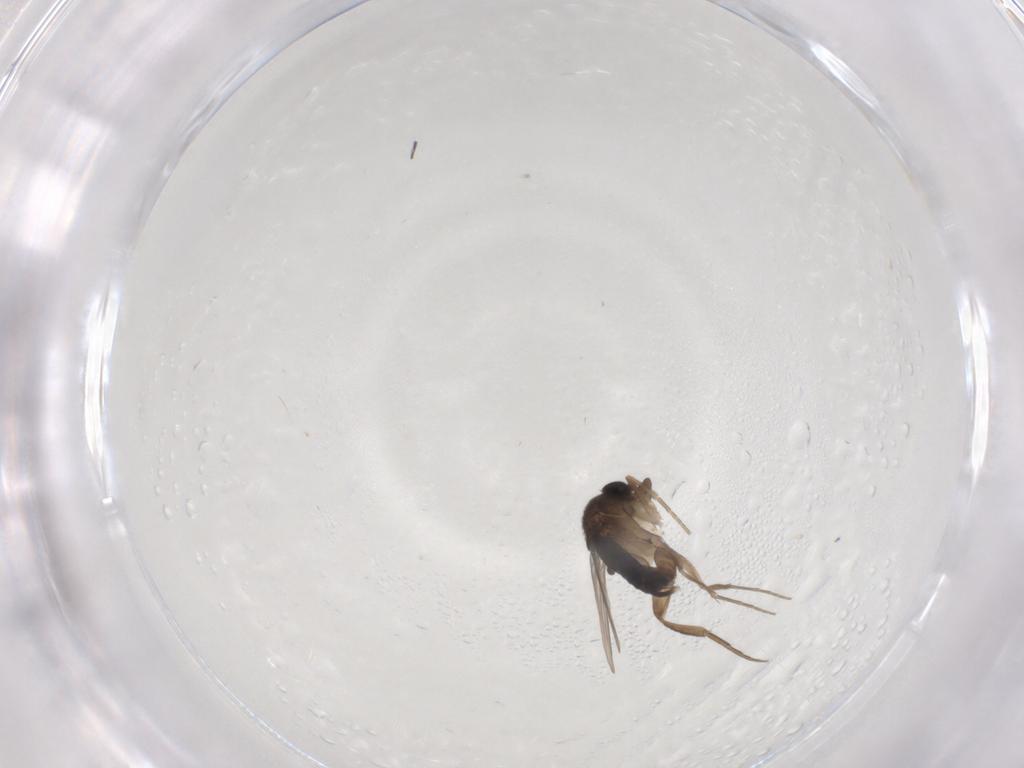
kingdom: Animalia
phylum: Arthropoda
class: Insecta
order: Diptera
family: Phoridae
